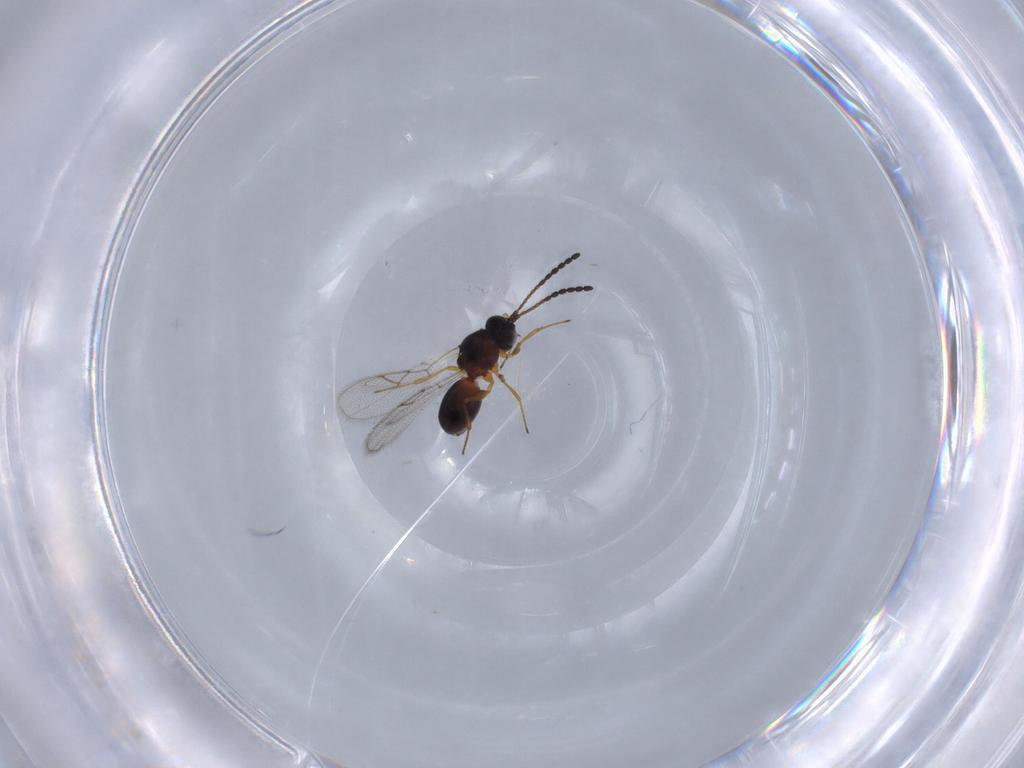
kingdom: Animalia
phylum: Arthropoda
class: Insecta
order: Hymenoptera
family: Figitidae
